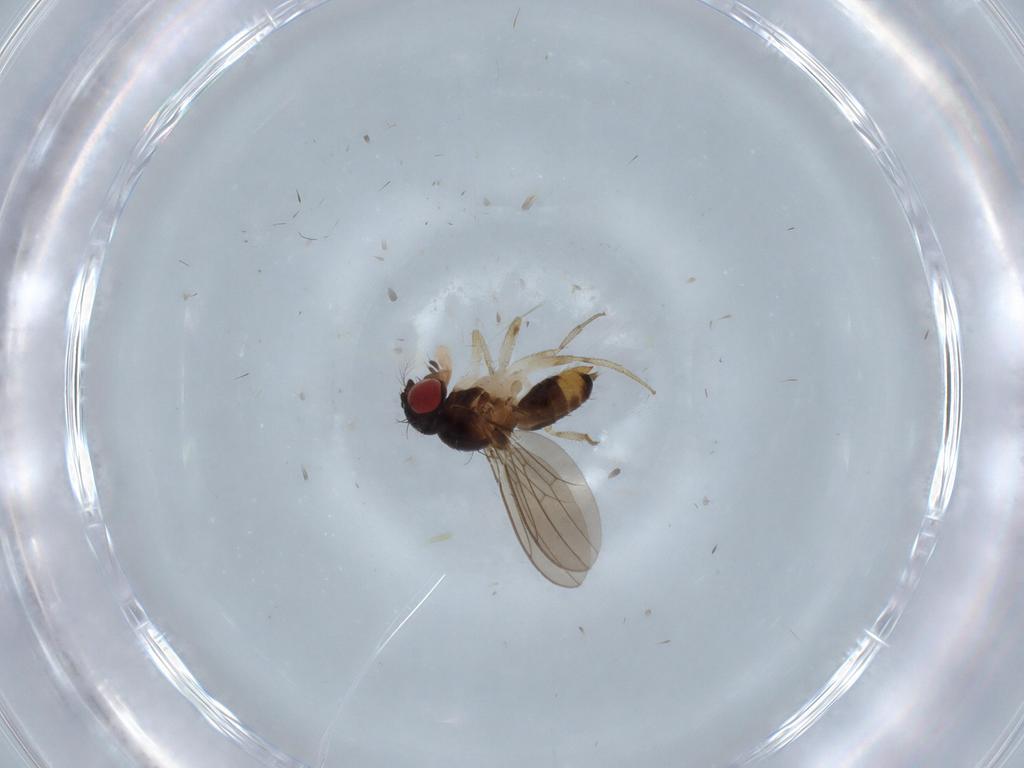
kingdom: Animalia
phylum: Arthropoda
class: Insecta
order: Diptera
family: Drosophilidae
